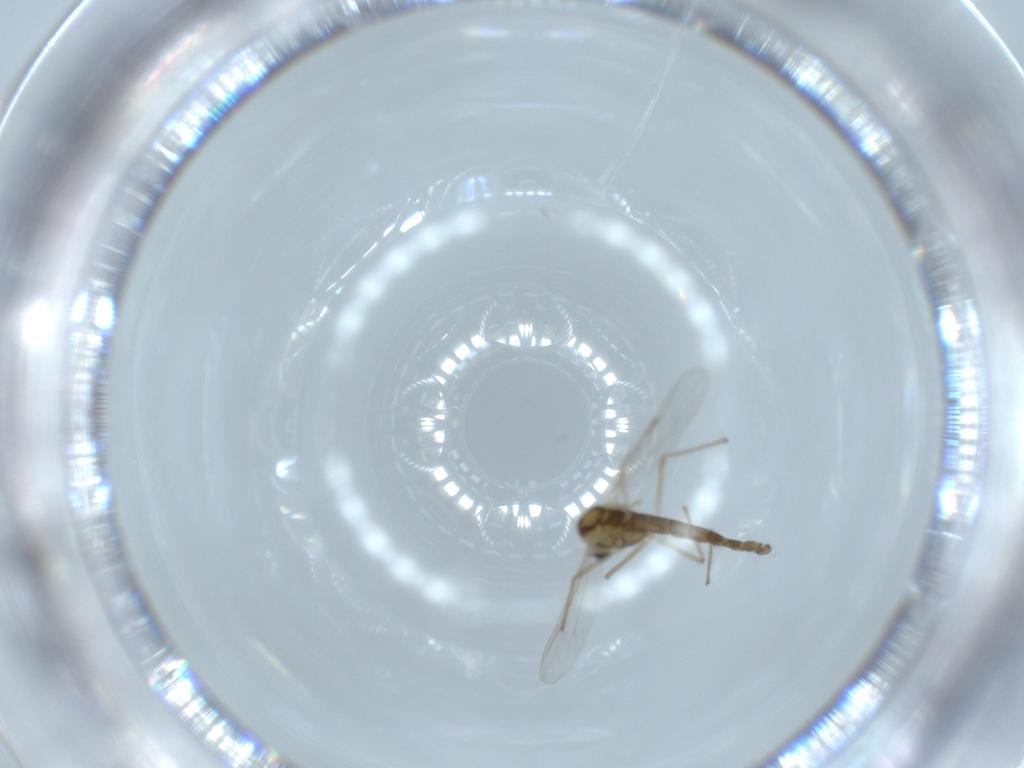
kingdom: Animalia
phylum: Arthropoda
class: Insecta
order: Diptera
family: Chironomidae
